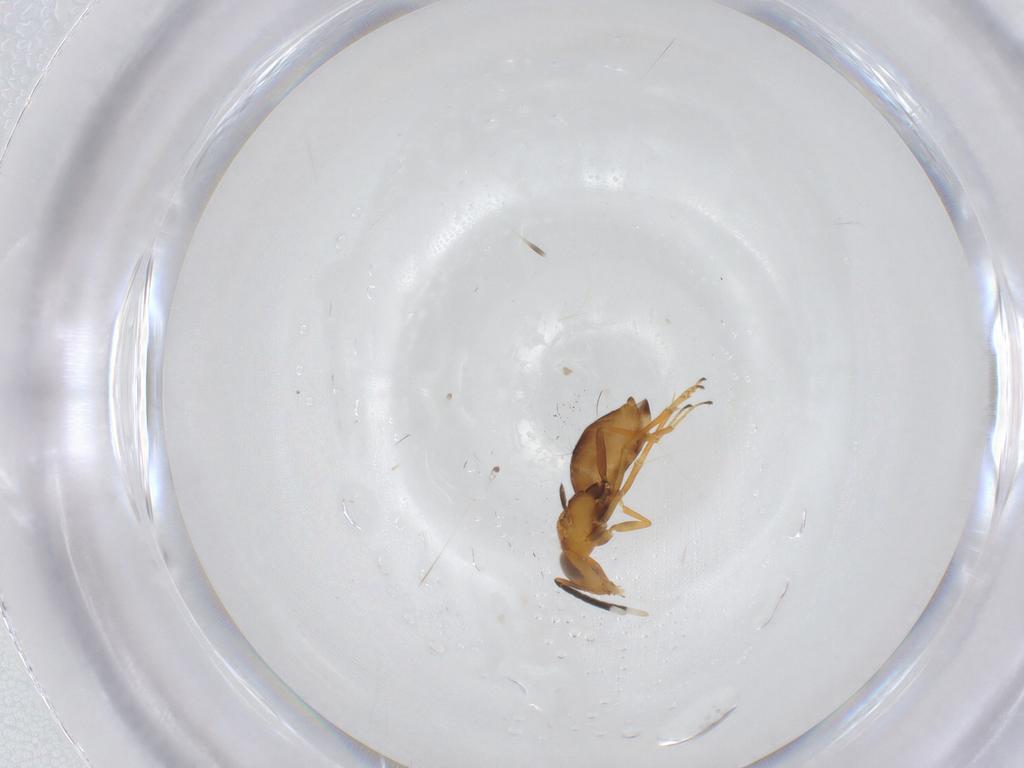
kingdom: Animalia
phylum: Arthropoda
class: Insecta
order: Hymenoptera
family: Encyrtidae
